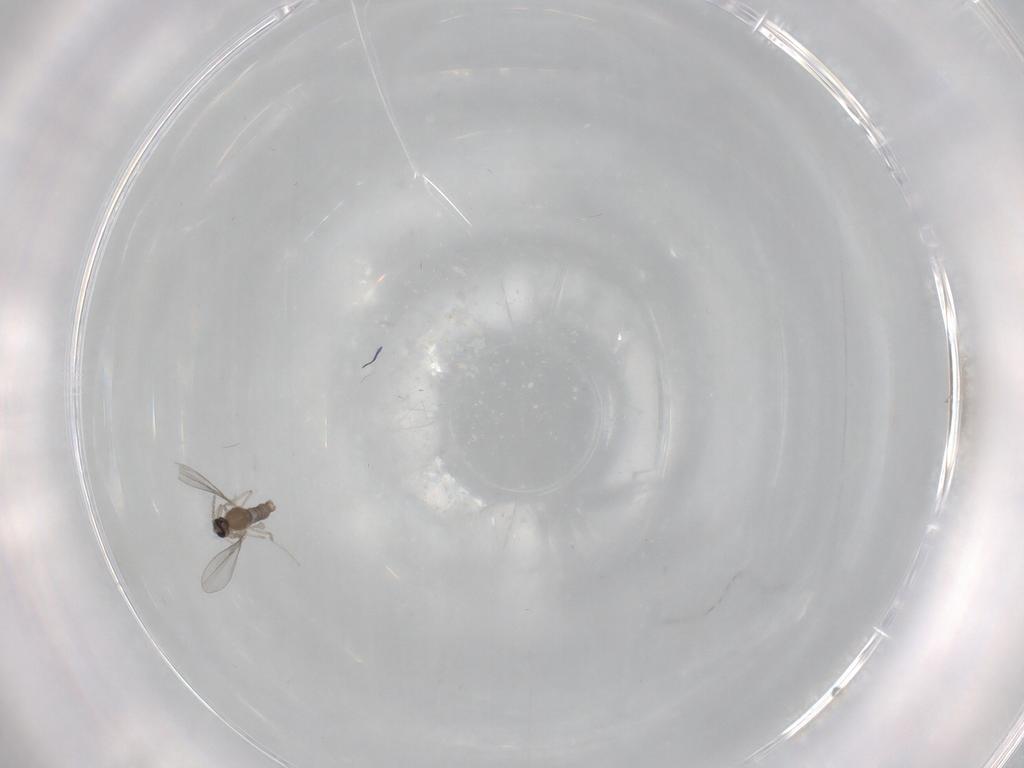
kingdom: Animalia
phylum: Arthropoda
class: Insecta
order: Diptera
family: Cecidomyiidae
